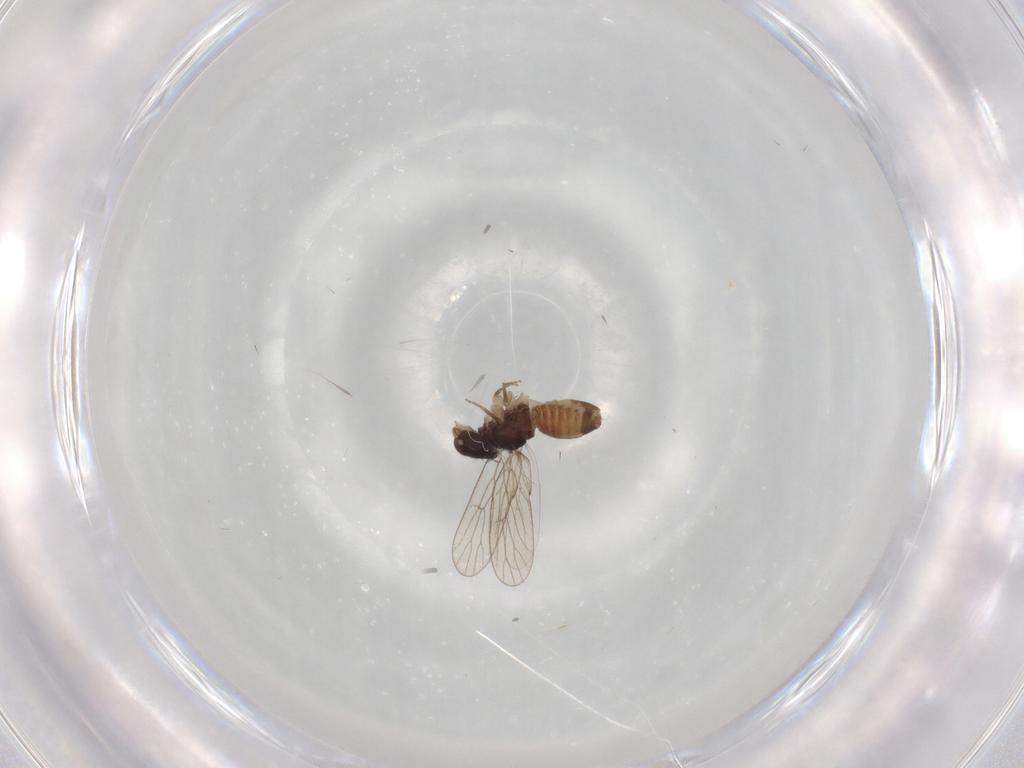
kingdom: Animalia
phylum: Arthropoda
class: Insecta
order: Psocodea
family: Psoquillidae
